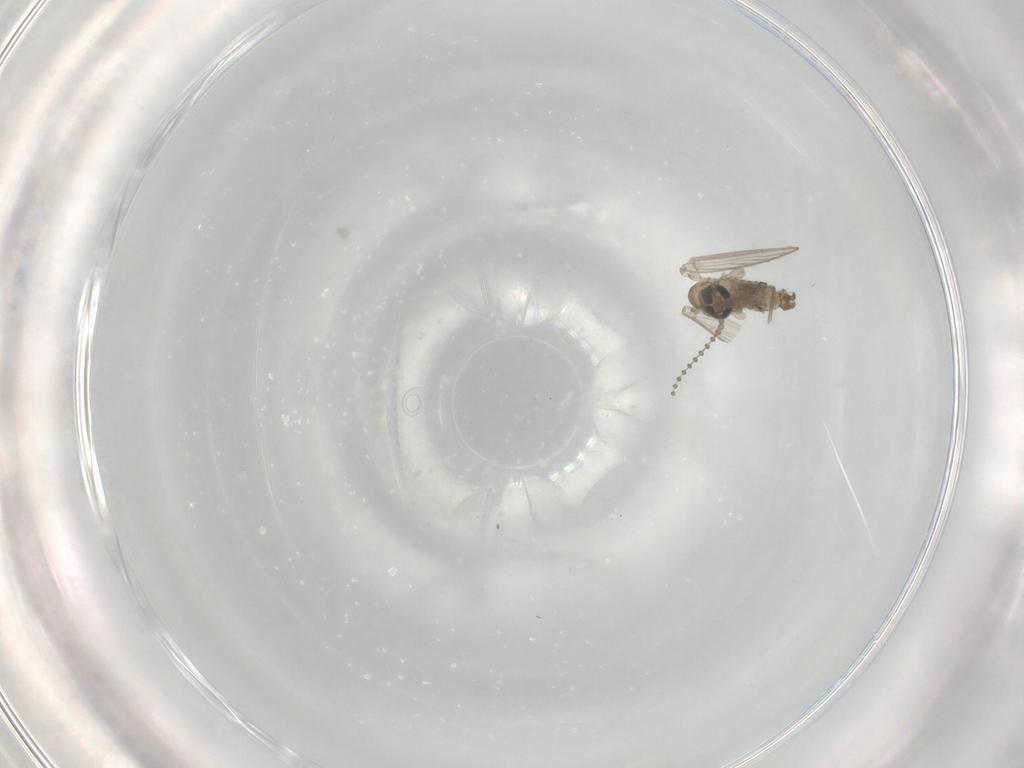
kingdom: Animalia
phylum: Arthropoda
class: Insecta
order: Diptera
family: Psychodidae
